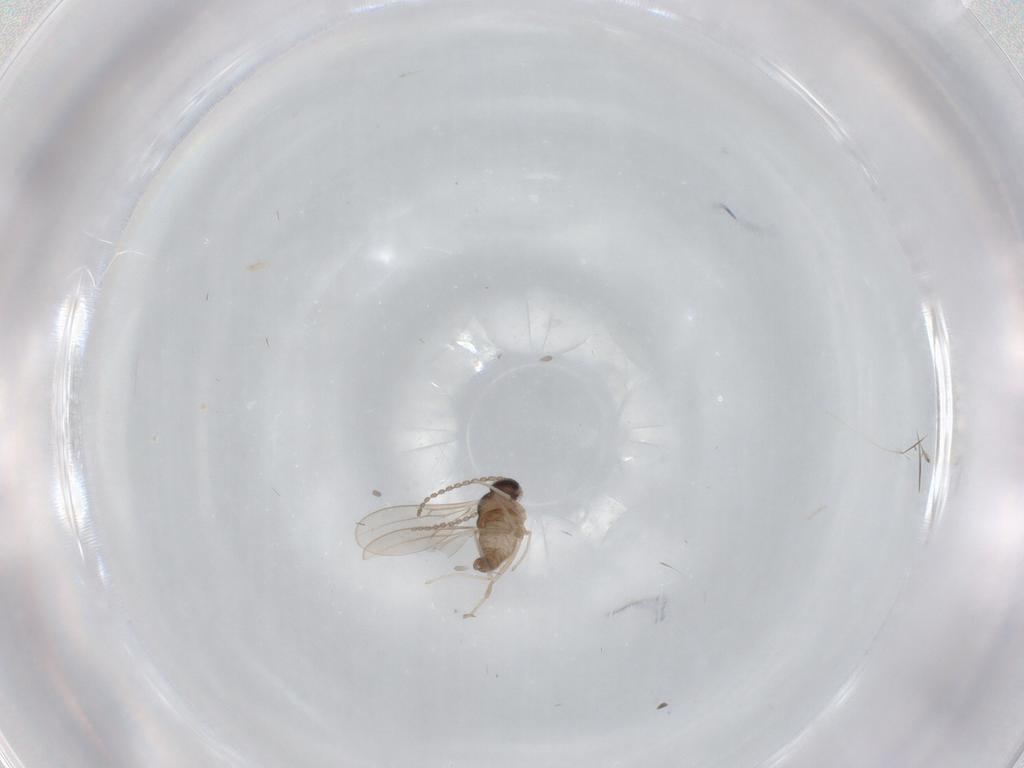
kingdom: Animalia
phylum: Arthropoda
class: Insecta
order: Diptera
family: Cecidomyiidae
